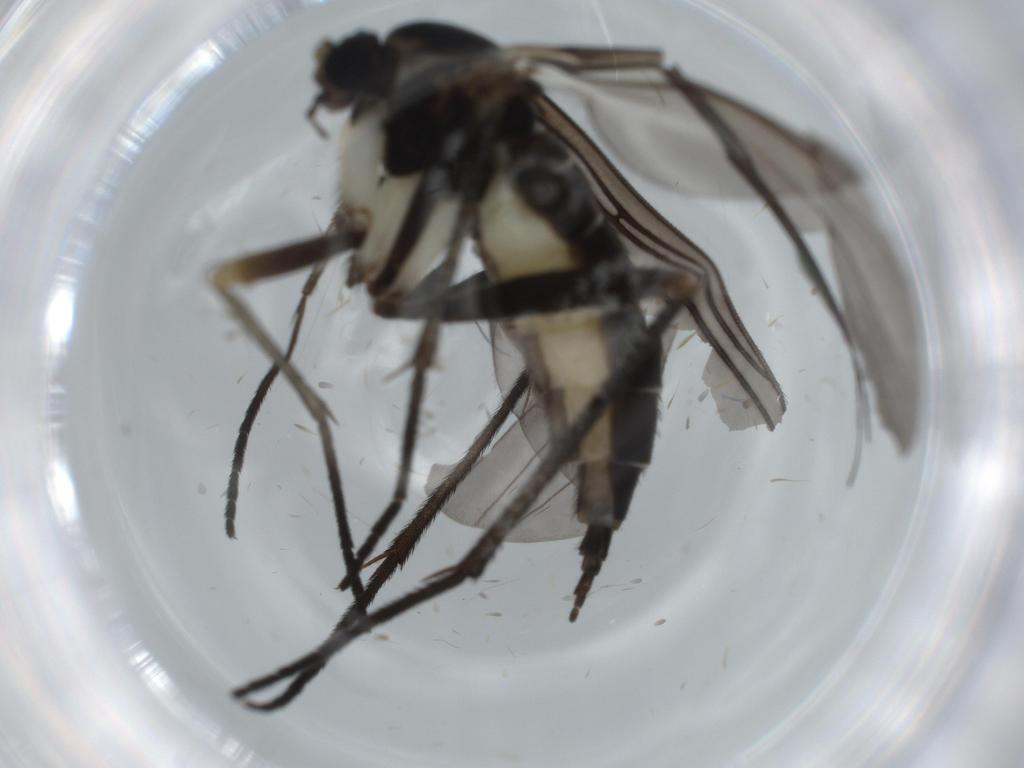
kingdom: Animalia
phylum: Arthropoda
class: Insecta
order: Diptera
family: Sciaridae
